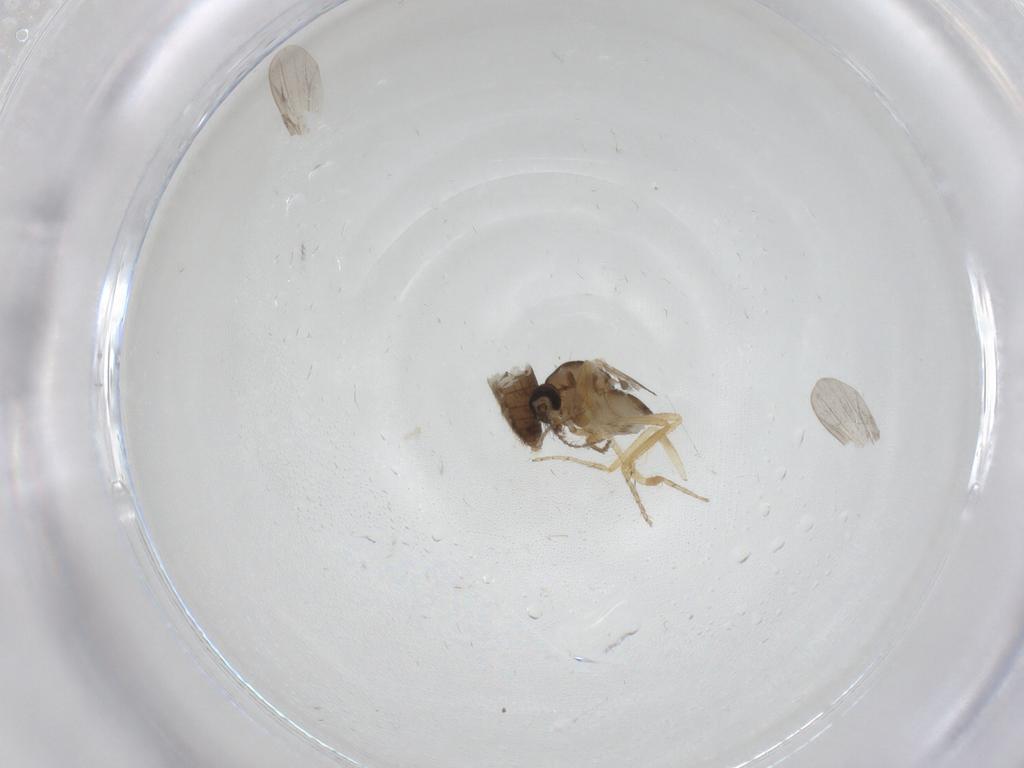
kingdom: Animalia
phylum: Arthropoda
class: Insecta
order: Diptera
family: Ceratopogonidae
